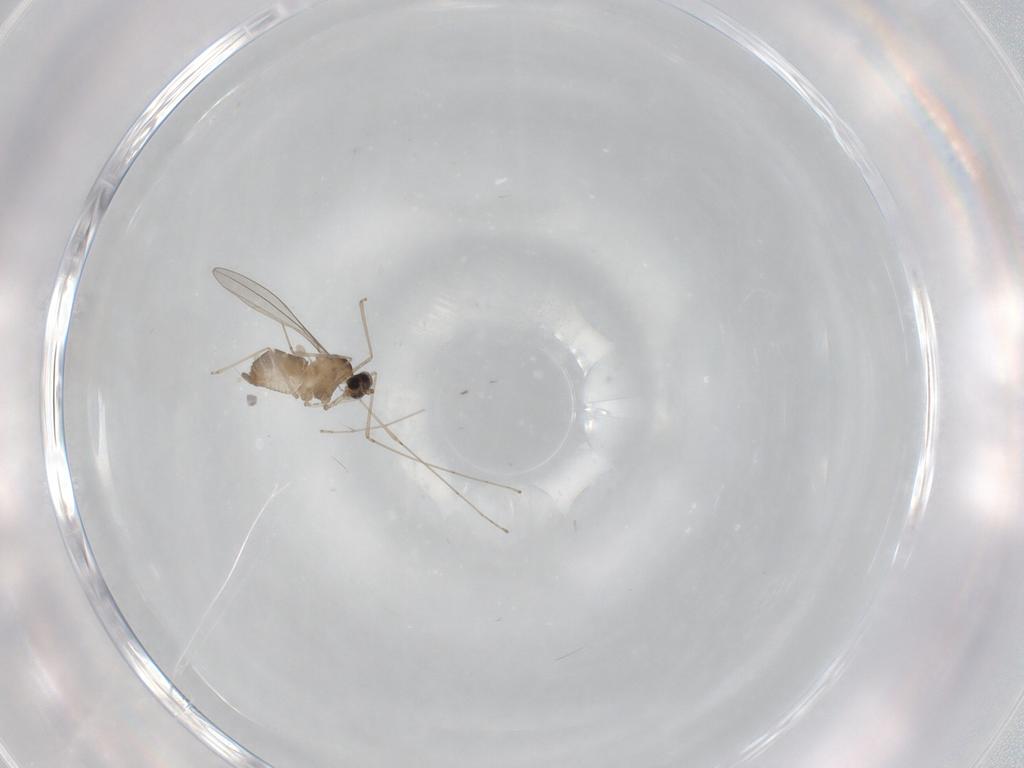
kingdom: Animalia
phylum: Arthropoda
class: Insecta
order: Diptera
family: Cecidomyiidae
